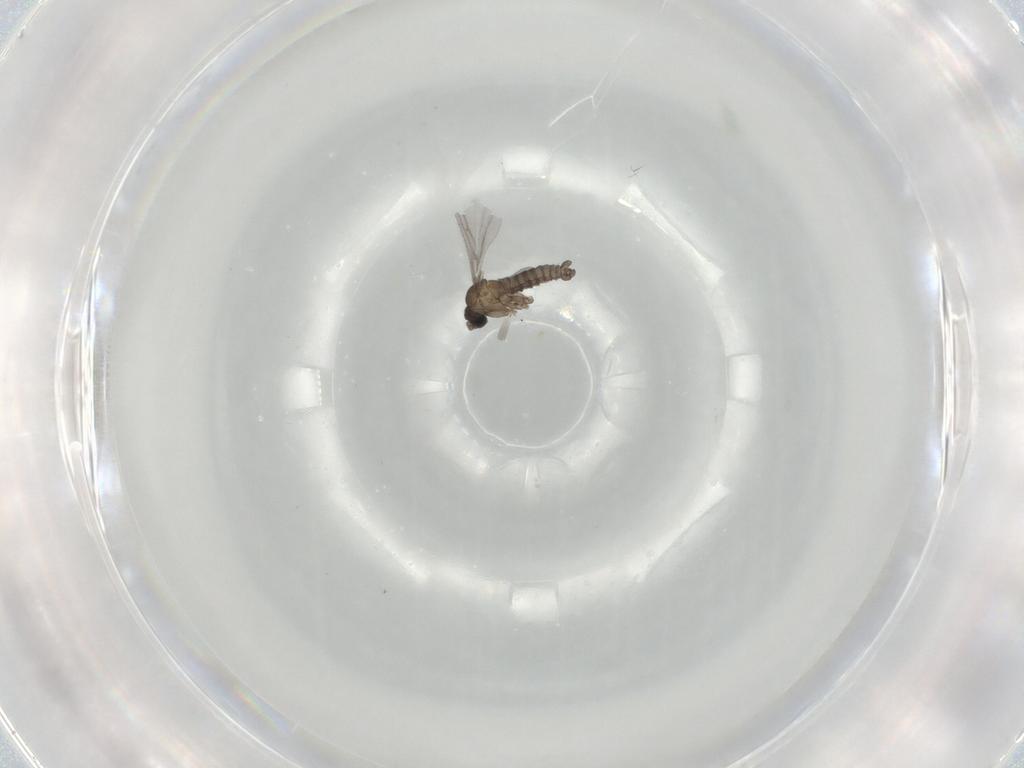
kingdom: Animalia
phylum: Arthropoda
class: Insecta
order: Diptera
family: Sciaridae
